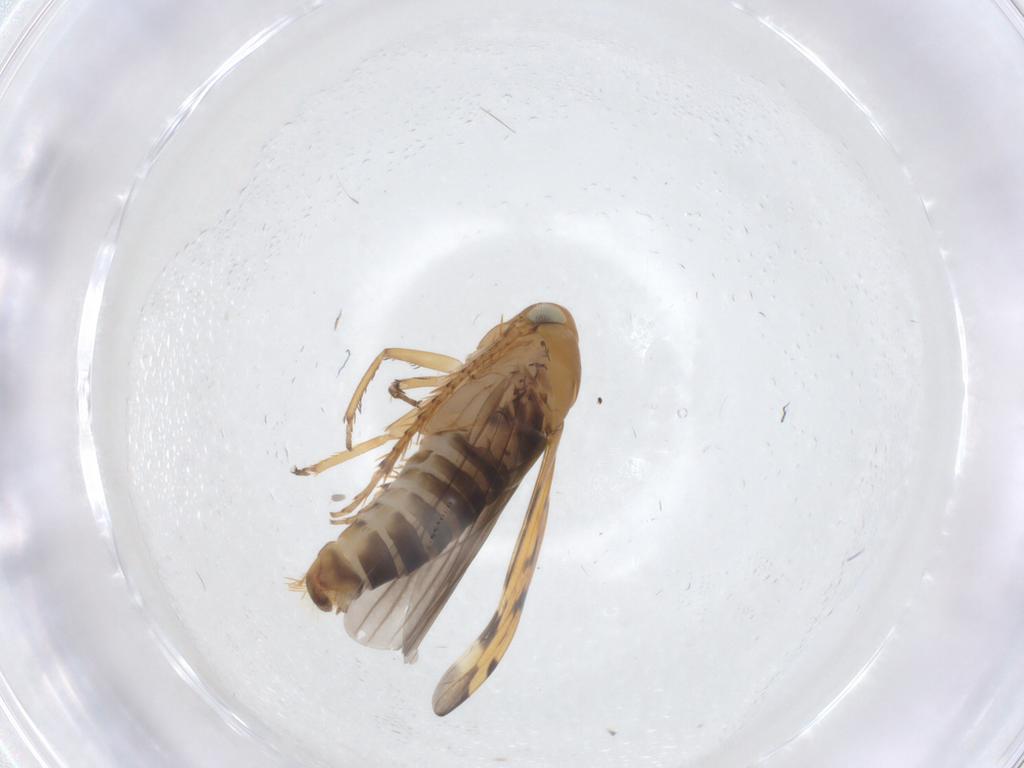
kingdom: Animalia
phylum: Arthropoda
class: Insecta
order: Hemiptera
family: Cicadellidae
